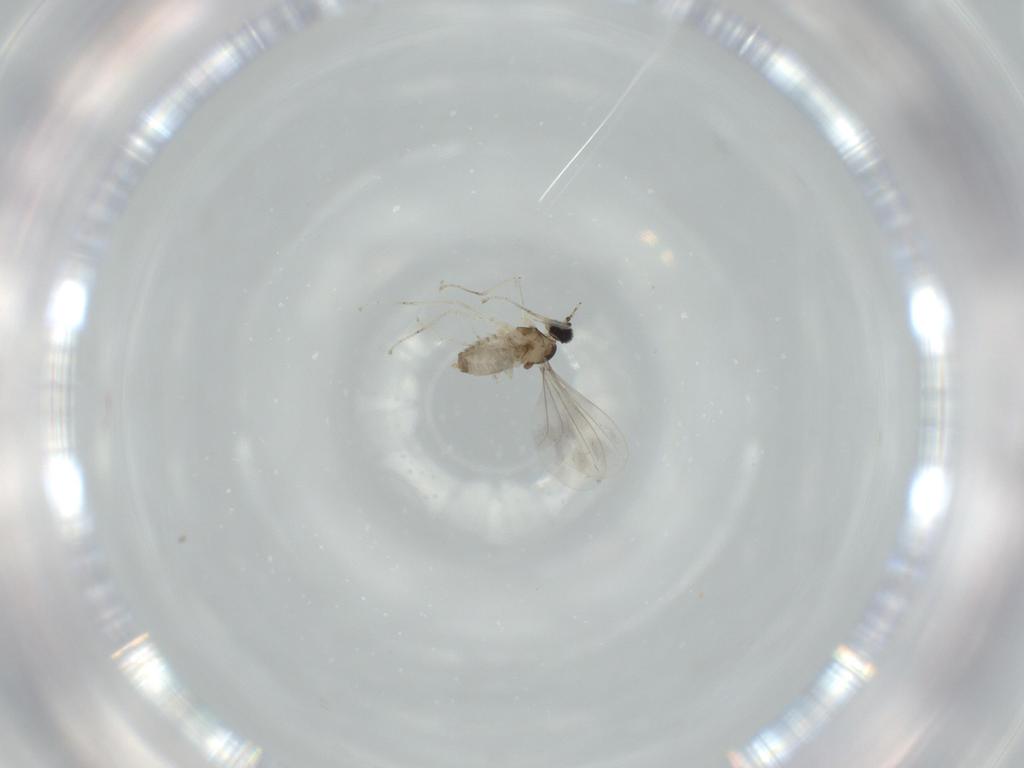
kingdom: Animalia
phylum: Arthropoda
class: Insecta
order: Diptera
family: Cecidomyiidae
